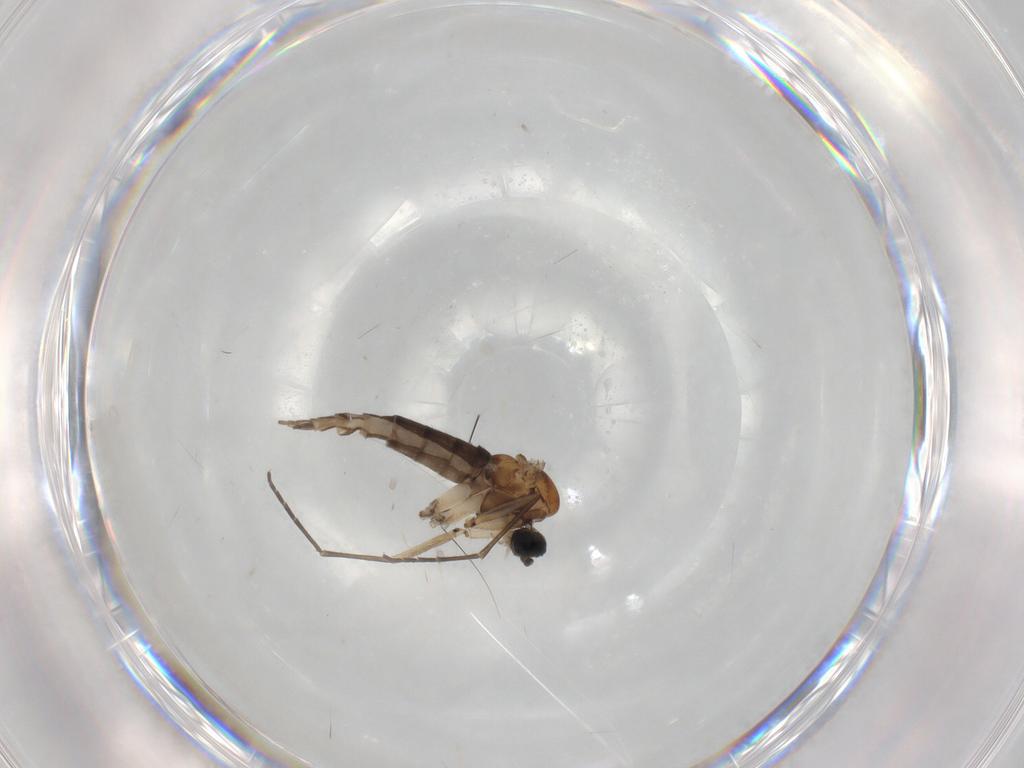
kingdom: Animalia
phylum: Arthropoda
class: Insecta
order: Diptera
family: Sciaridae
